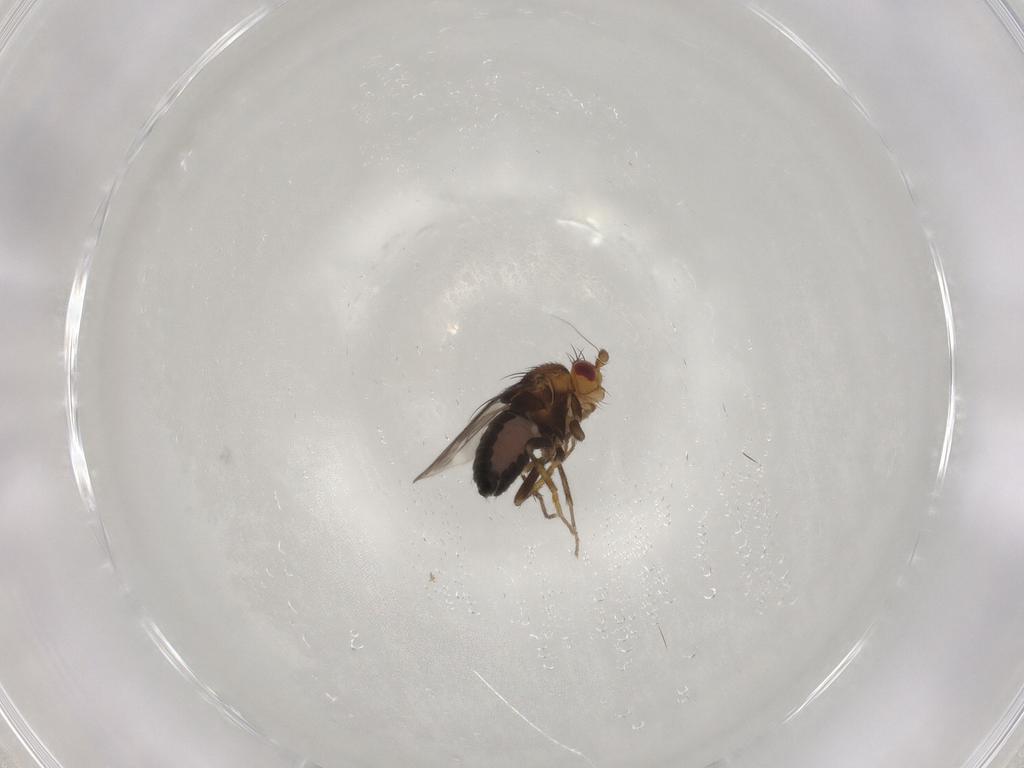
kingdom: Animalia
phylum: Arthropoda
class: Insecta
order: Diptera
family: Sphaeroceridae
